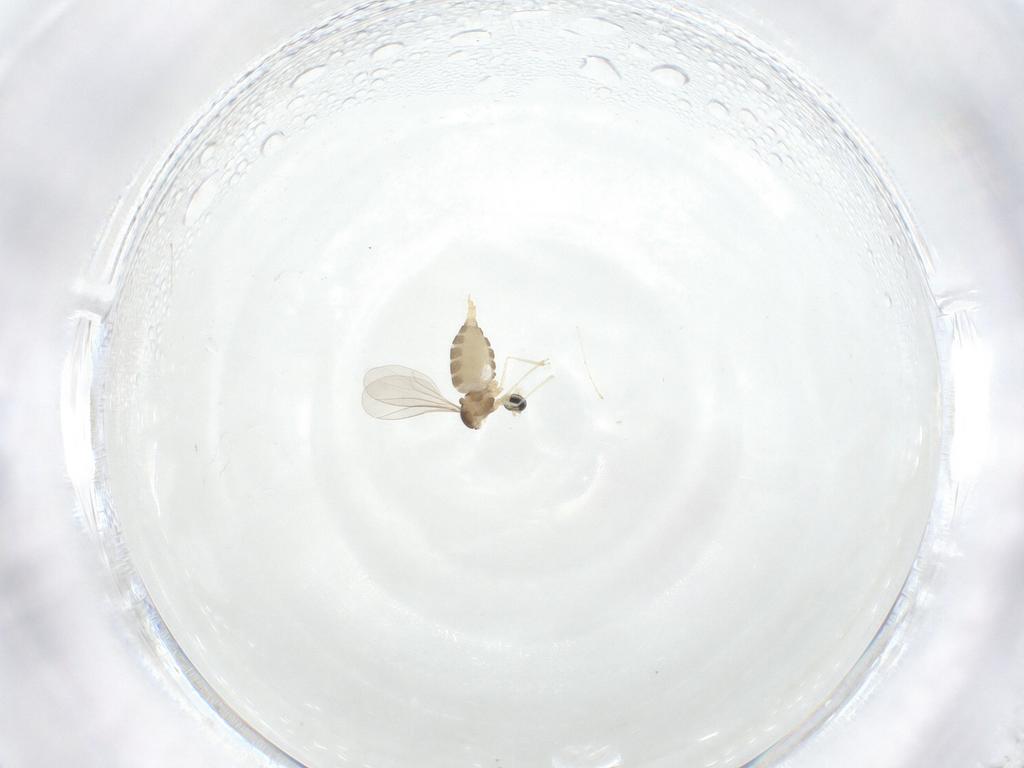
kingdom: Animalia
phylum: Arthropoda
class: Insecta
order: Diptera
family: Cecidomyiidae
